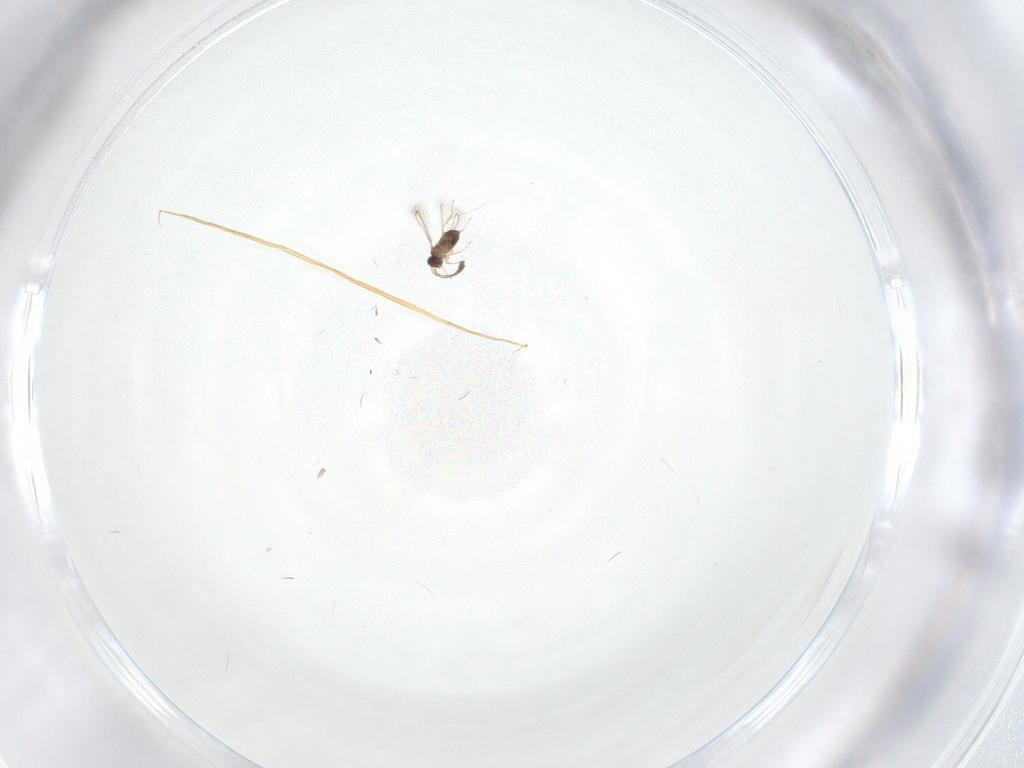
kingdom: Animalia
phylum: Arthropoda
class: Insecta
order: Hymenoptera
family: Mymaridae
